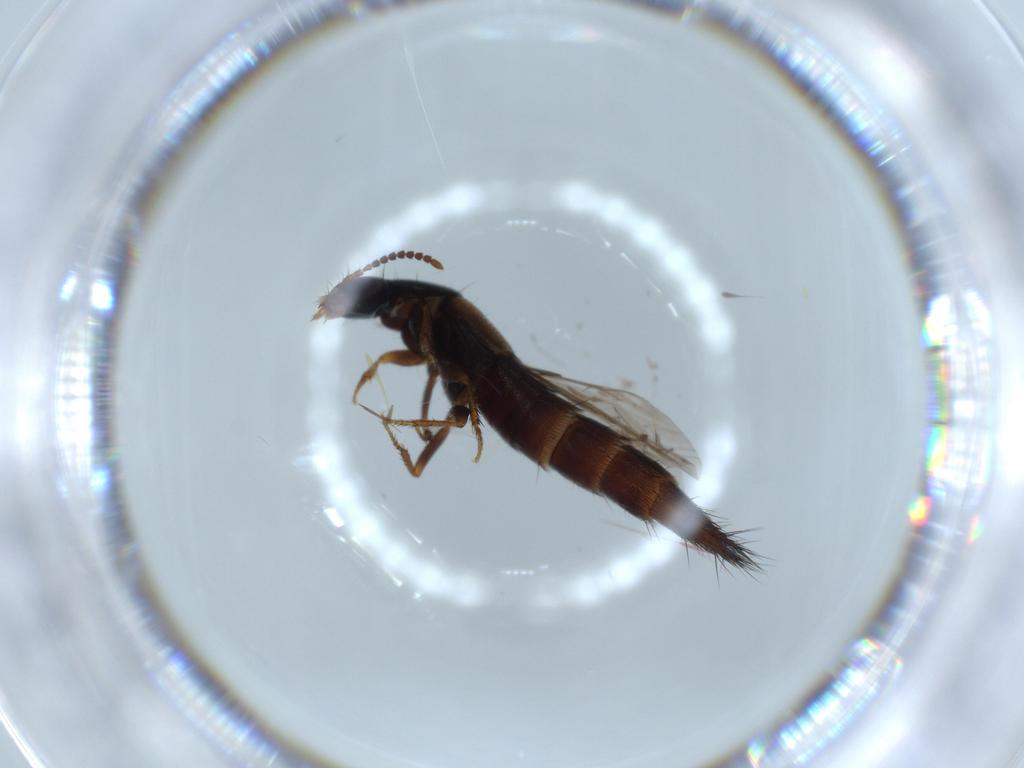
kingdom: Animalia
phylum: Arthropoda
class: Insecta
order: Coleoptera
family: Staphylinidae
